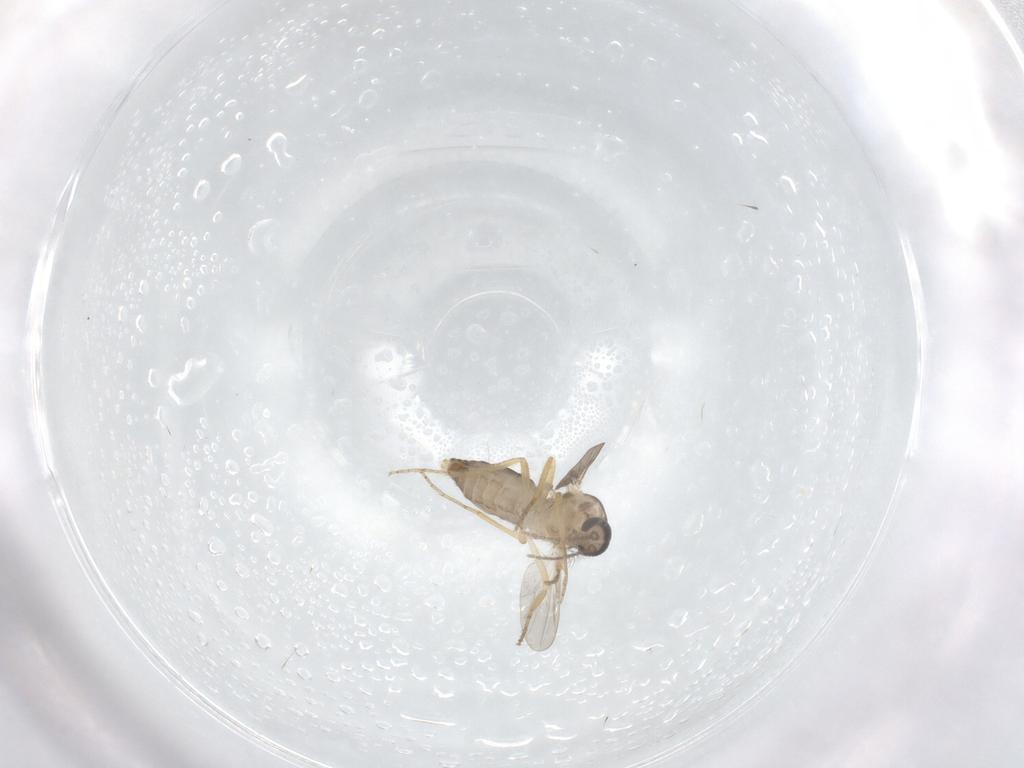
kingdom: Animalia
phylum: Arthropoda
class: Insecta
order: Diptera
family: Ceratopogonidae
